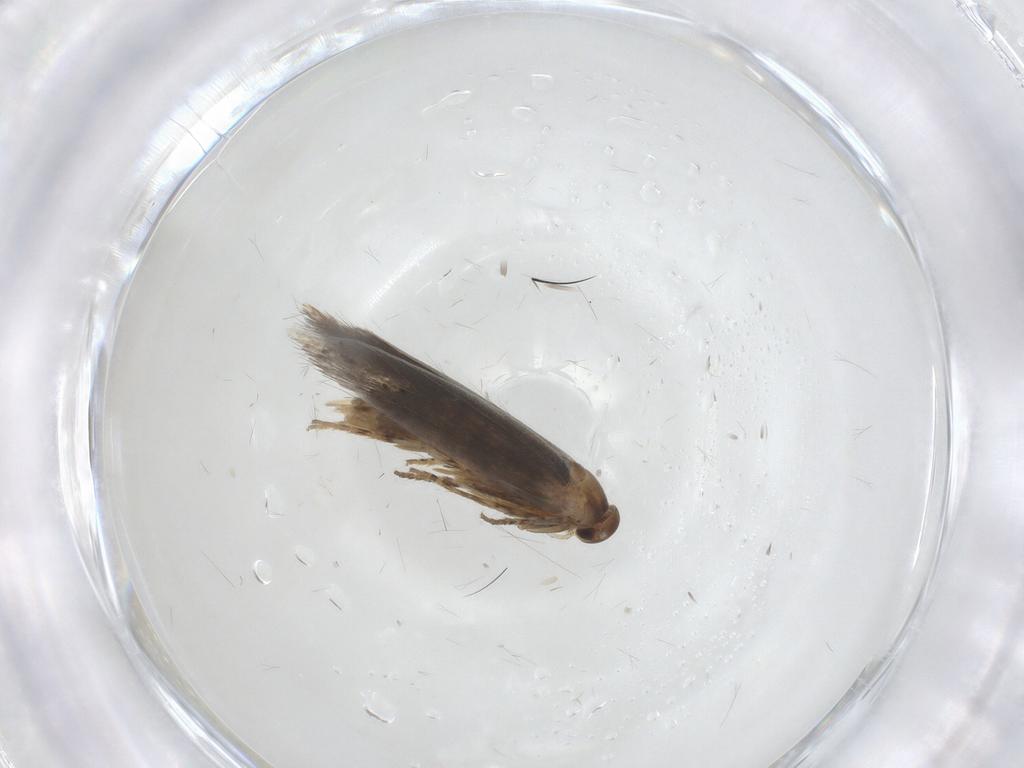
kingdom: Animalia
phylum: Arthropoda
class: Insecta
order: Lepidoptera
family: Elachistidae
